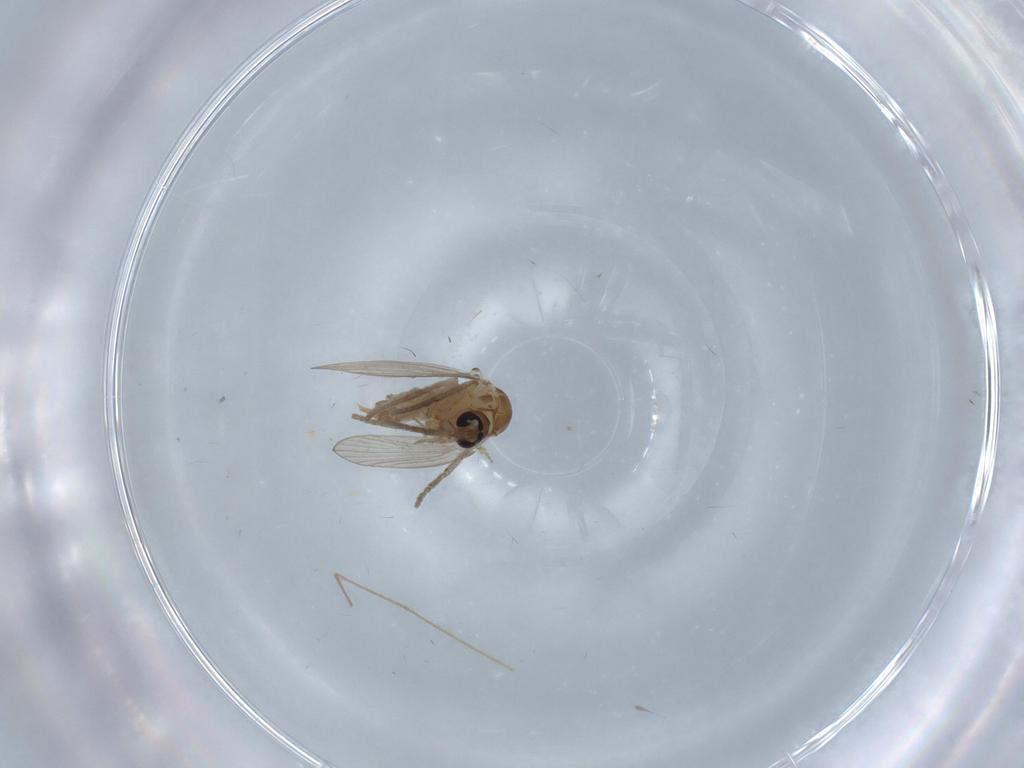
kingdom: Animalia
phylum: Arthropoda
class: Insecta
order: Diptera
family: Chironomidae
